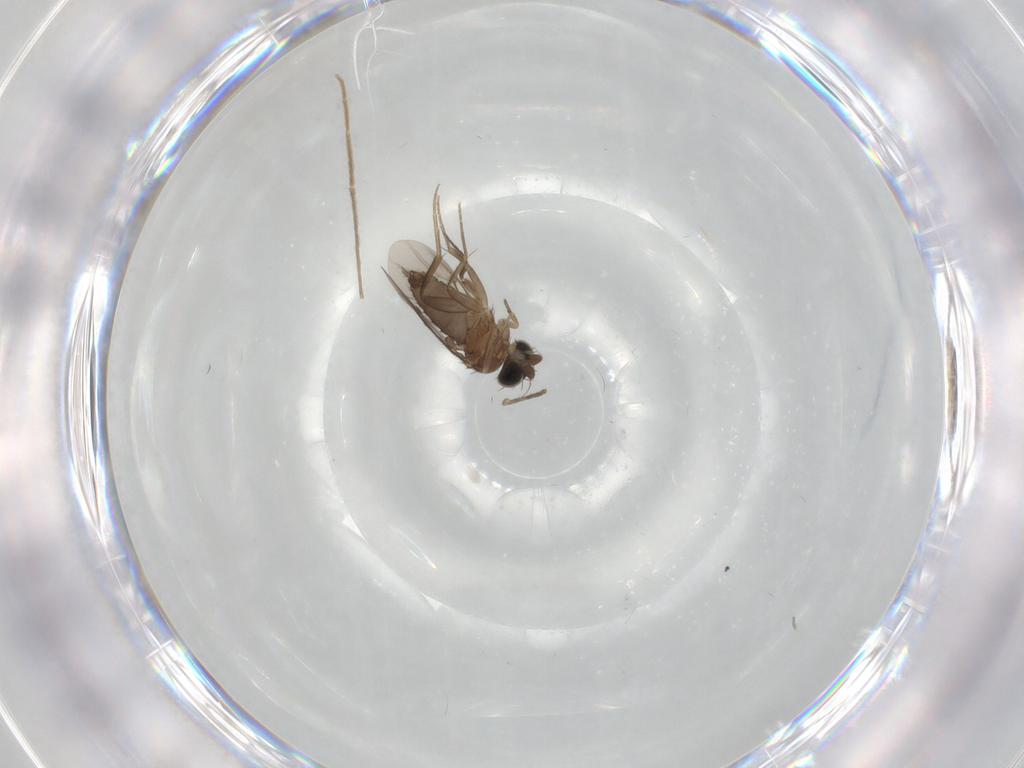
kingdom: Animalia
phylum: Arthropoda
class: Insecta
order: Diptera
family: Phoridae
